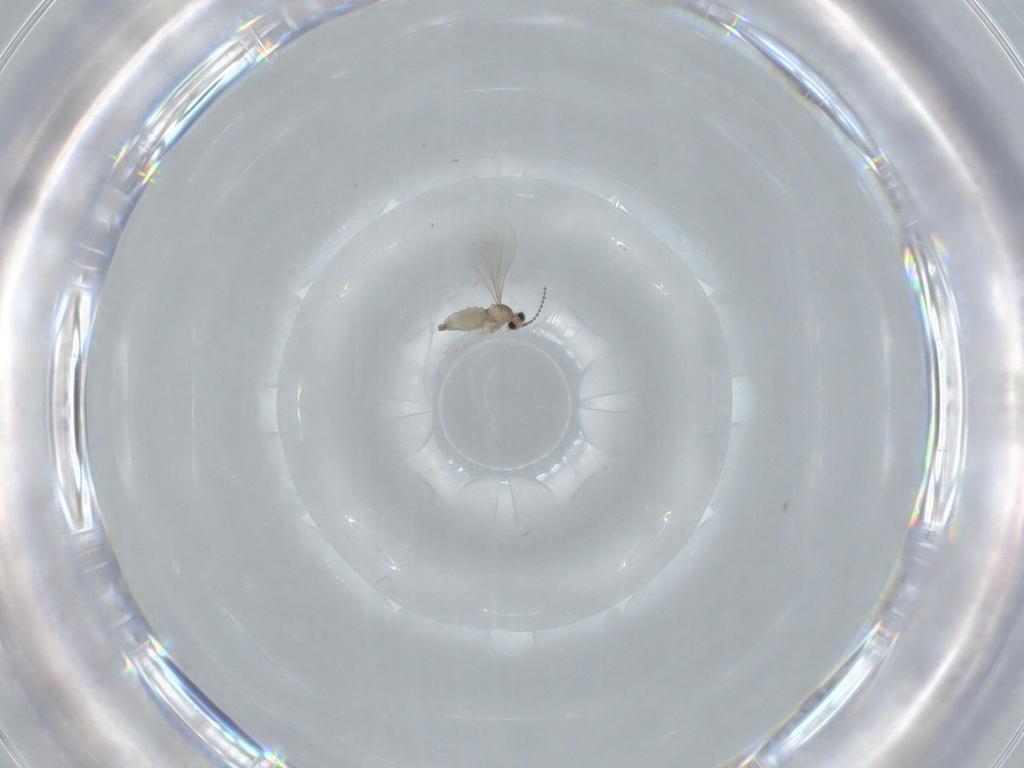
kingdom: Animalia
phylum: Arthropoda
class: Insecta
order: Diptera
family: Cecidomyiidae
